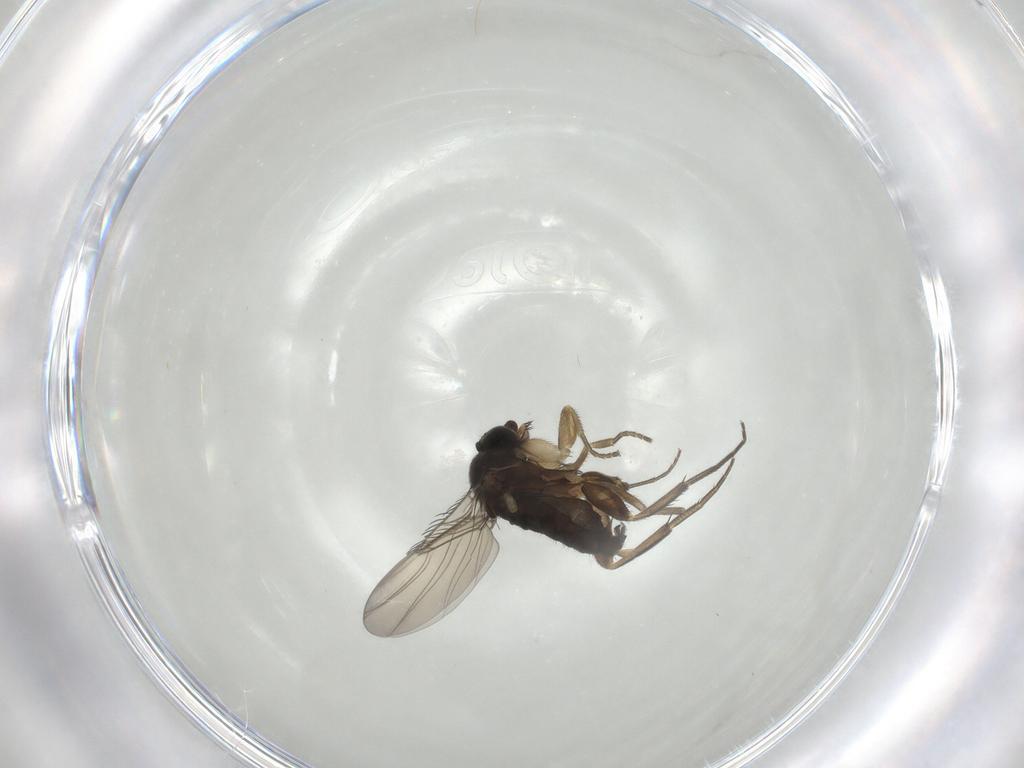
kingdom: Animalia
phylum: Arthropoda
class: Insecta
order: Diptera
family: Phoridae
